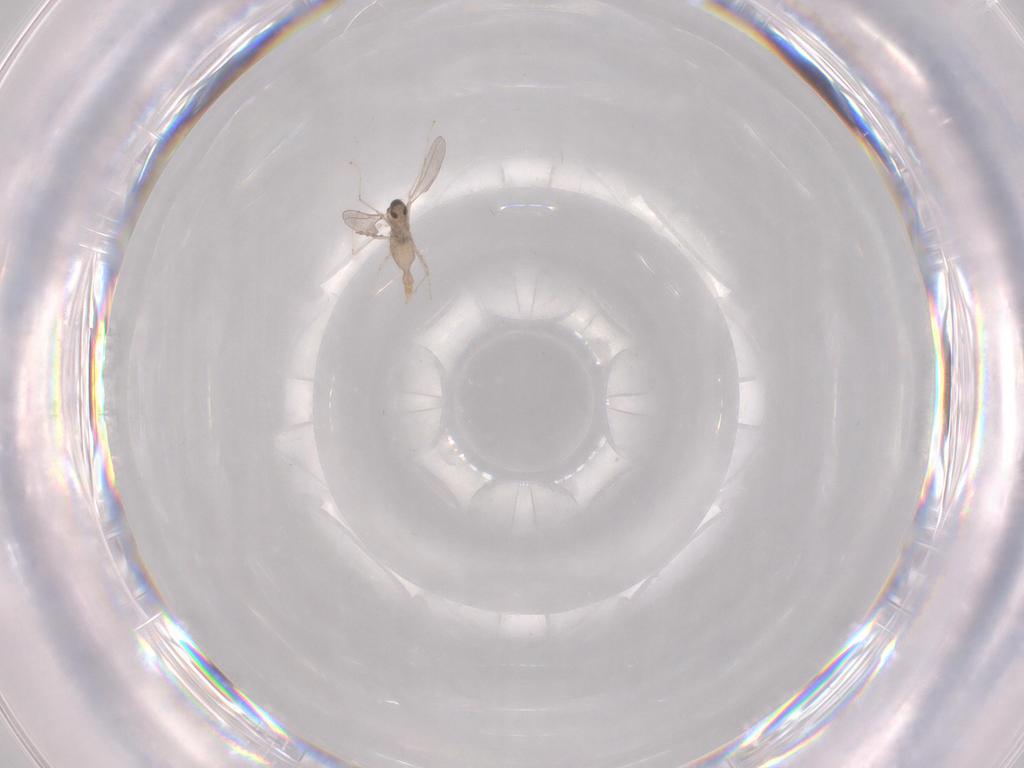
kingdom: Animalia
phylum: Arthropoda
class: Insecta
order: Diptera
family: Cecidomyiidae
